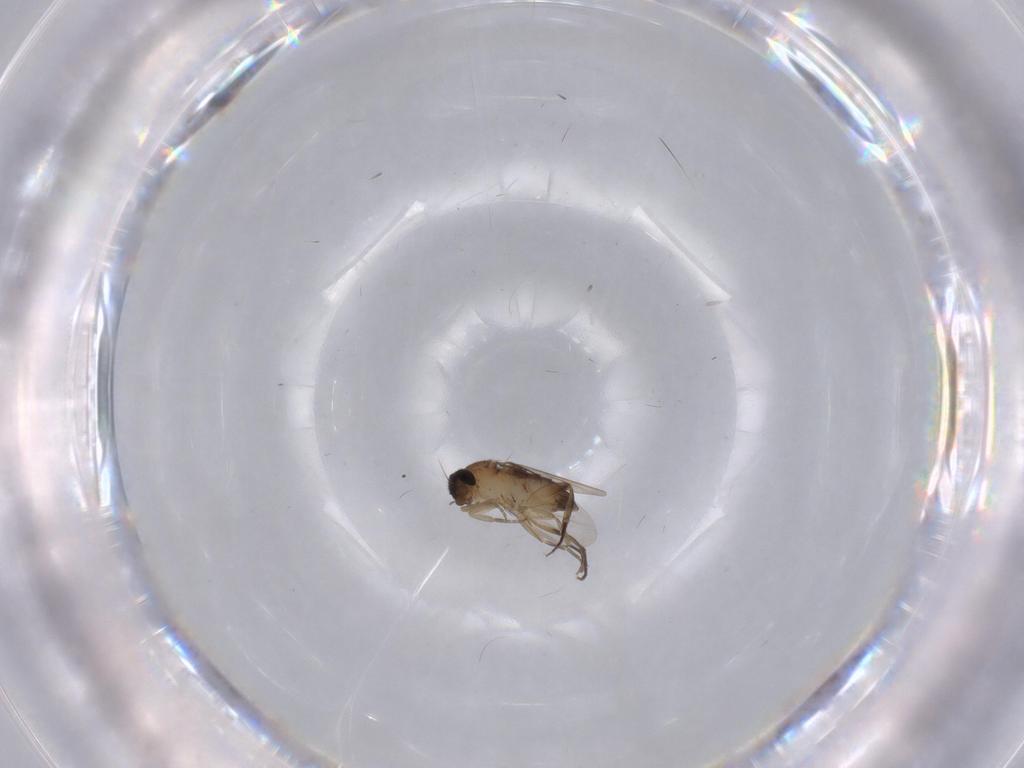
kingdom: Animalia
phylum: Arthropoda
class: Insecta
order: Diptera
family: Phoridae
